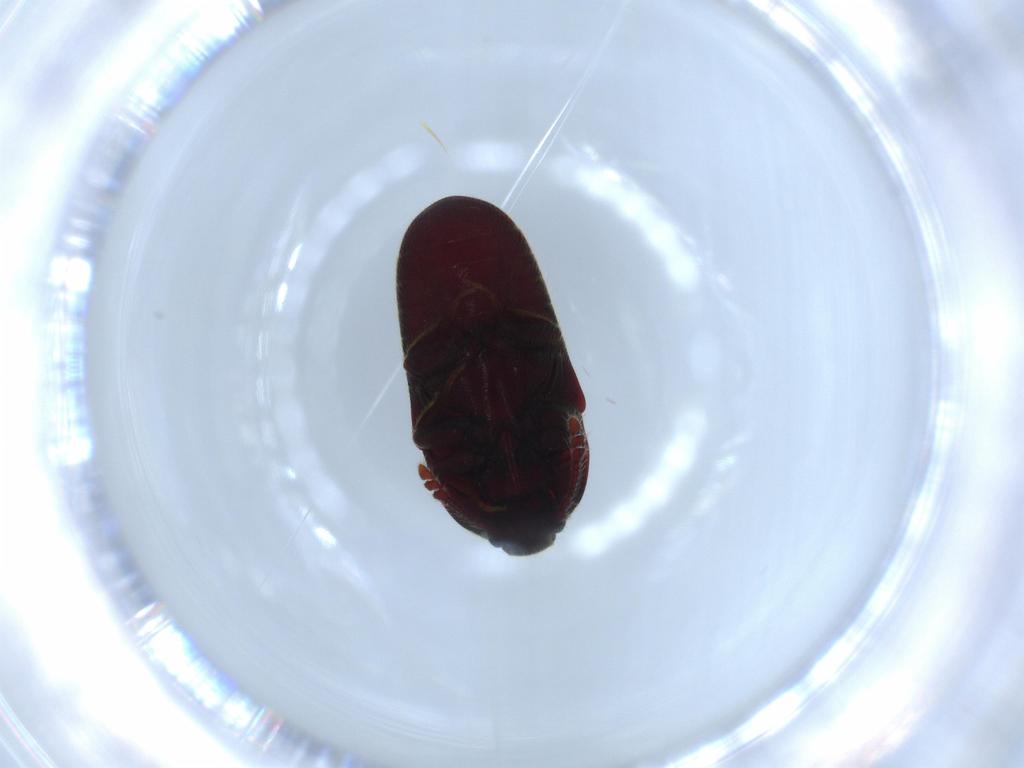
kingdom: Animalia
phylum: Arthropoda
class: Insecta
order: Coleoptera
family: Throscidae
